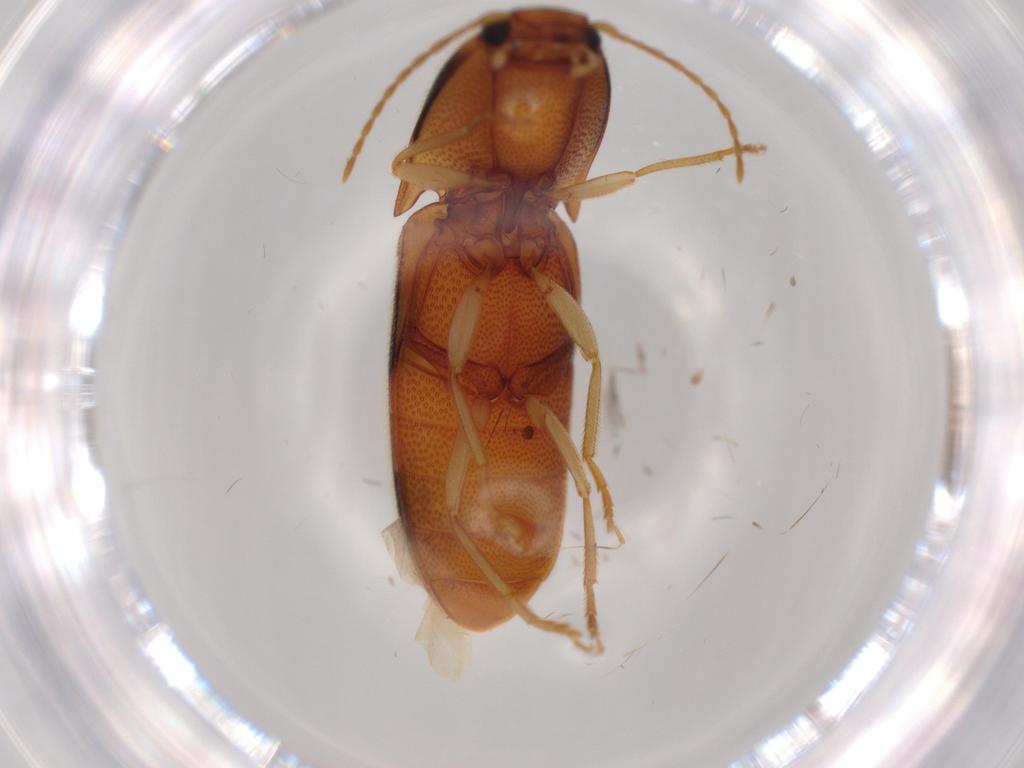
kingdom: Animalia
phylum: Arthropoda
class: Insecta
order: Coleoptera
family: Elateridae
